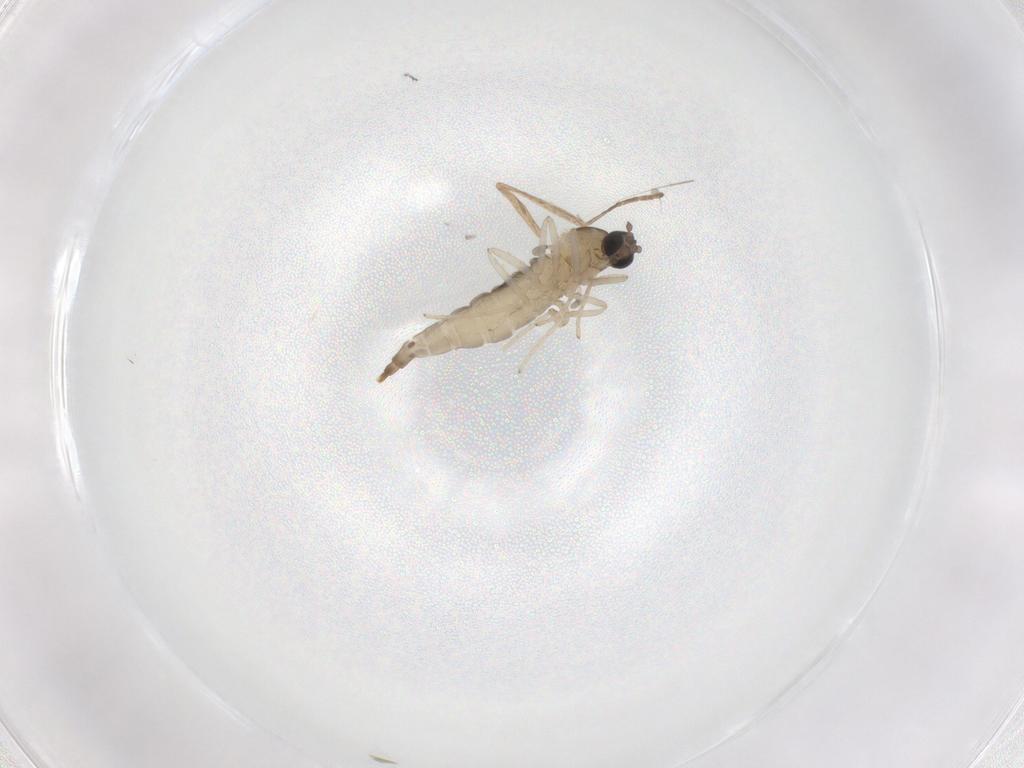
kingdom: Animalia
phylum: Arthropoda
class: Insecta
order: Diptera
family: Cecidomyiidae
